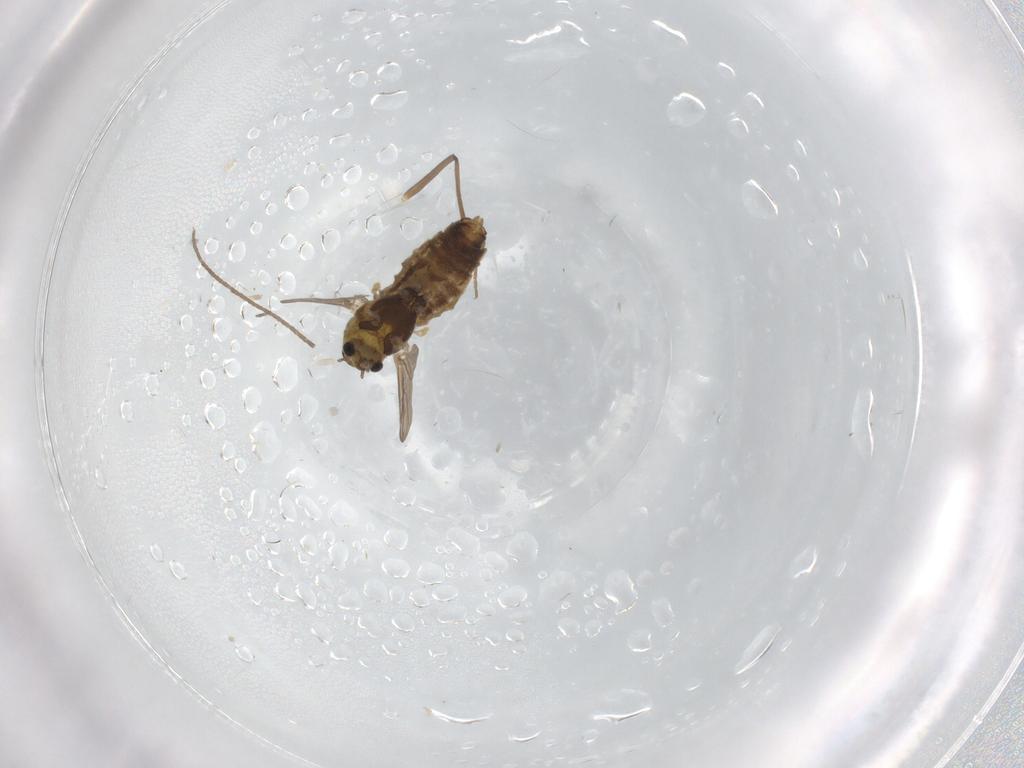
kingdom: Animalia
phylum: Arthropoda
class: Insecta
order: Diptera
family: Chironomidae
